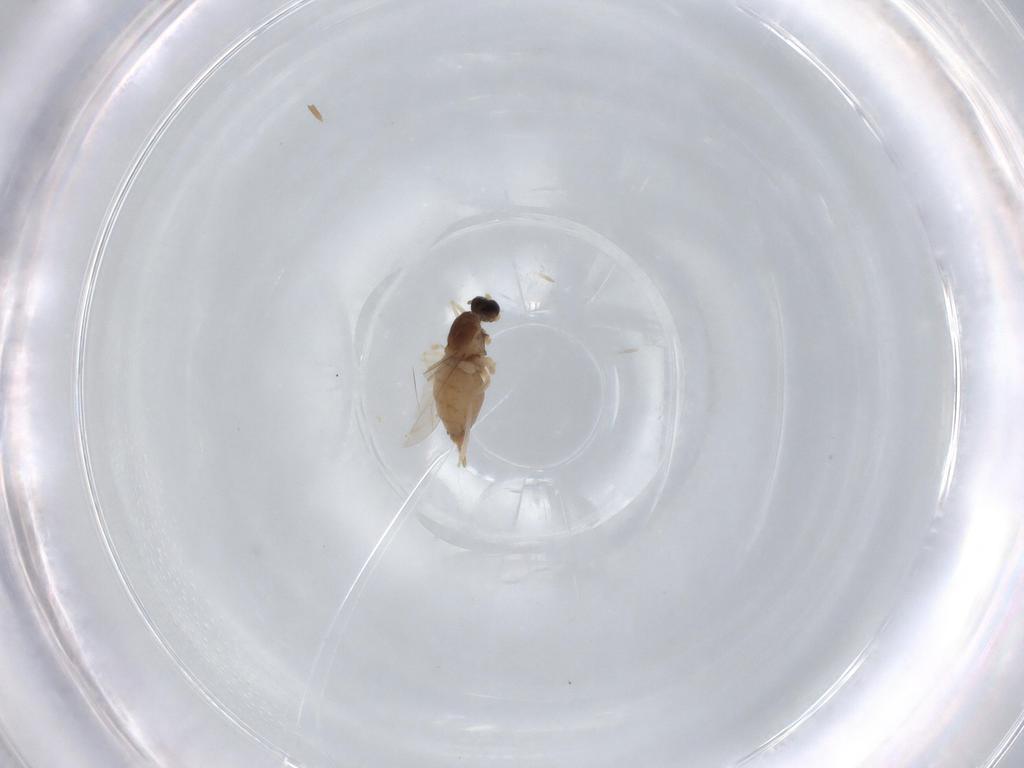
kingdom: Animalia
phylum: Arthropoda
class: Insecta
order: Diptera
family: Cecidomyiidae
